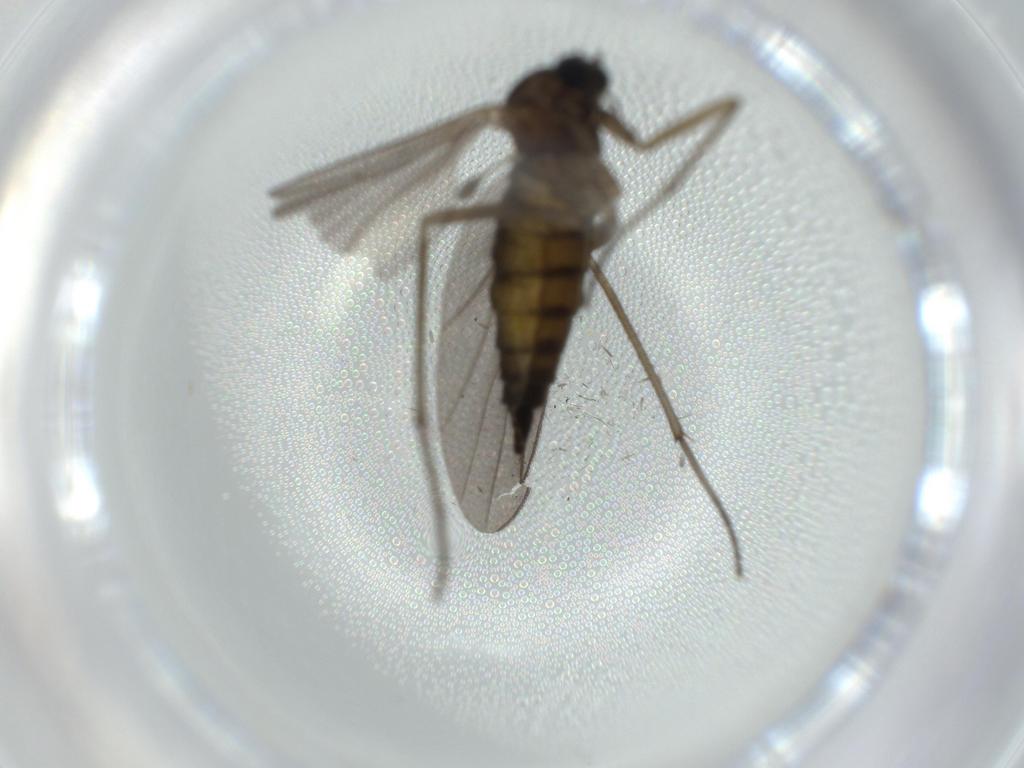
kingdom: Animalia
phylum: Arthropoda
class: Insecta
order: Diptera
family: Sciaridae
